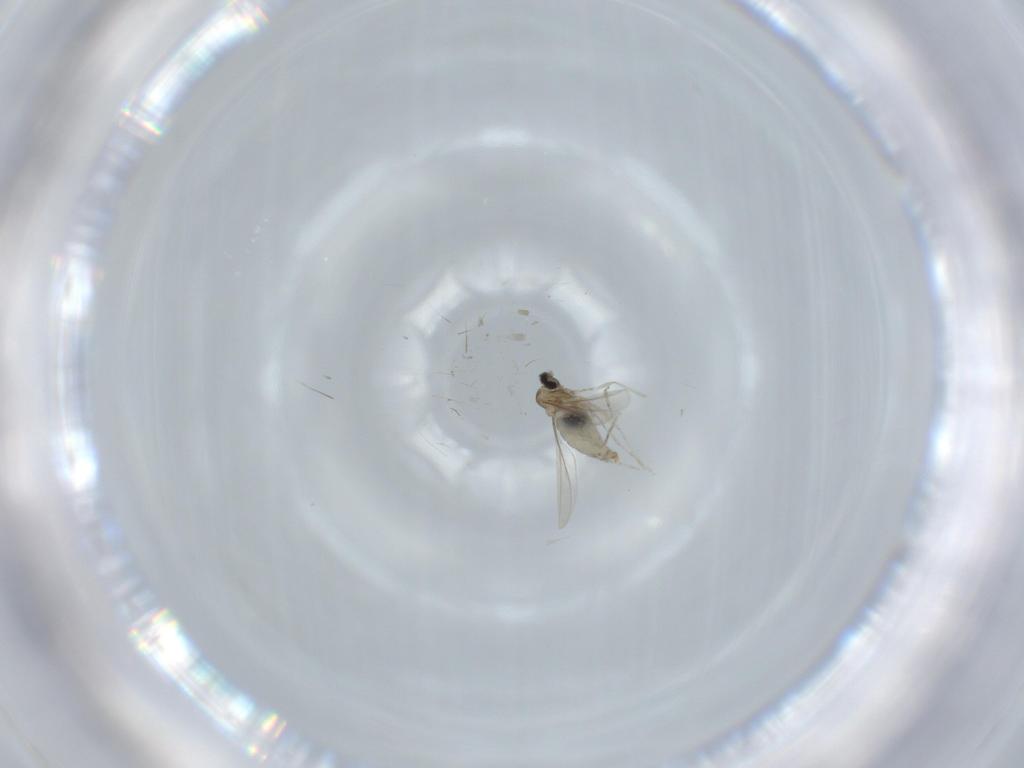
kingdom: Animalia
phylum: Arthropoda
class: Insecta
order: Diptera
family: Cecidomyiidae
